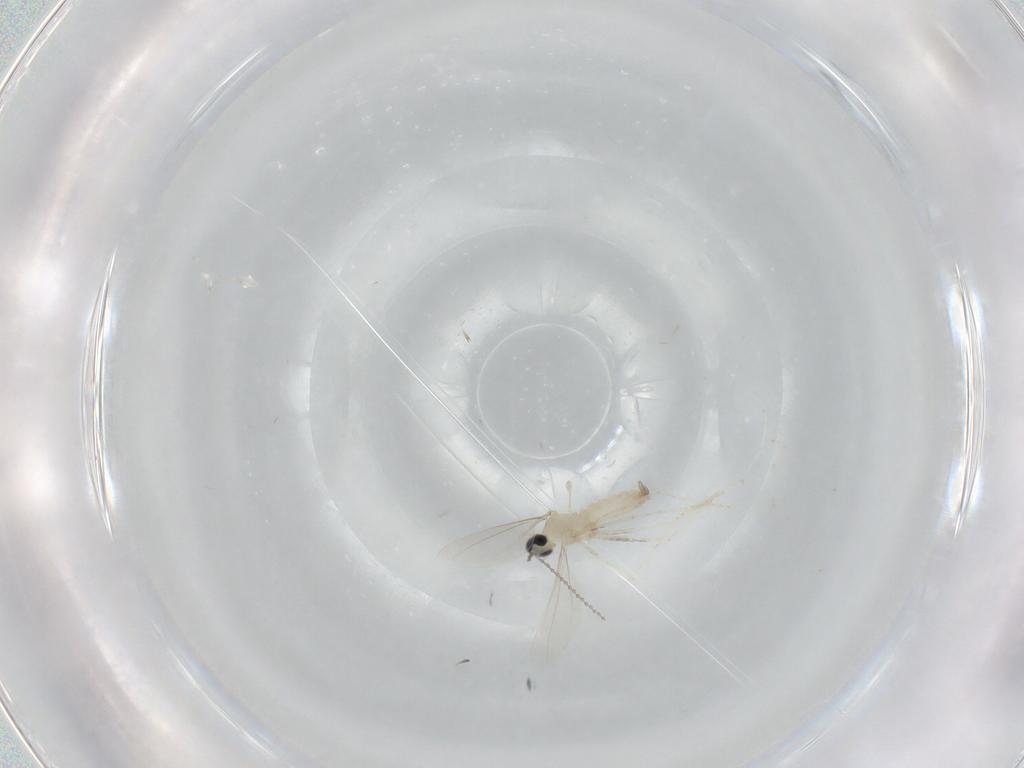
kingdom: Animalia
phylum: Arthropoda
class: Insecta
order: Diptera
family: Cecidomyiidae
